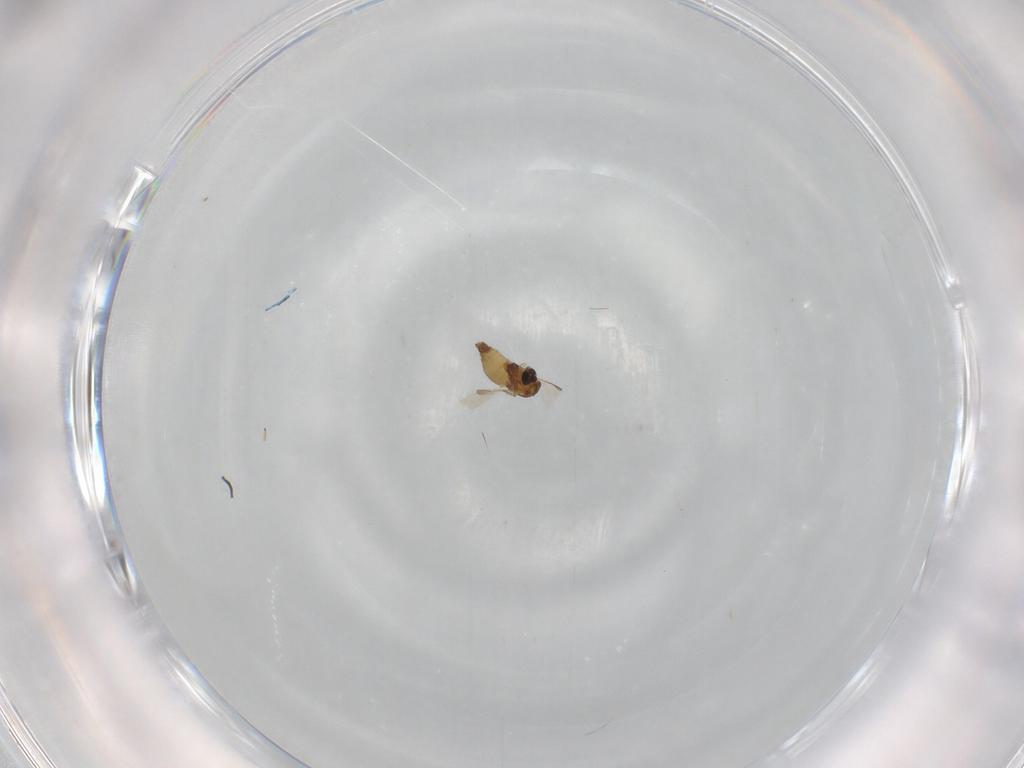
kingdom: Animalia
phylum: Arthropoda
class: Insecta
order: Diptera
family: Chironomidae
